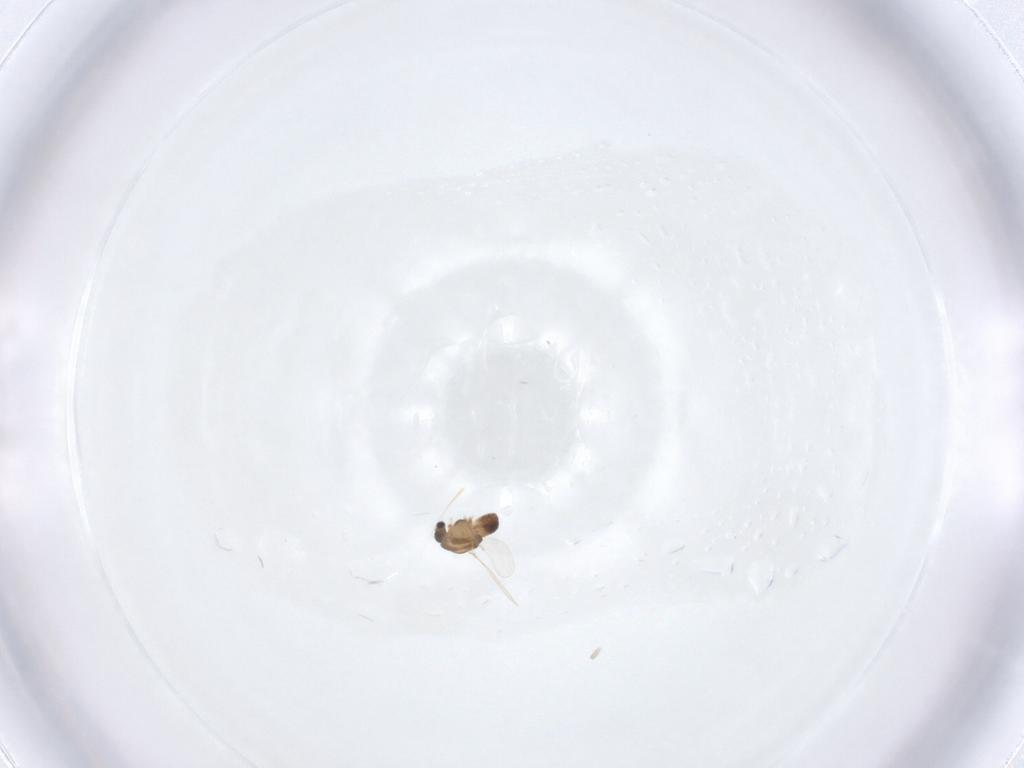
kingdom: Animalia
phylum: Arthropoda
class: Insecta
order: Diptera
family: Chironomidae
